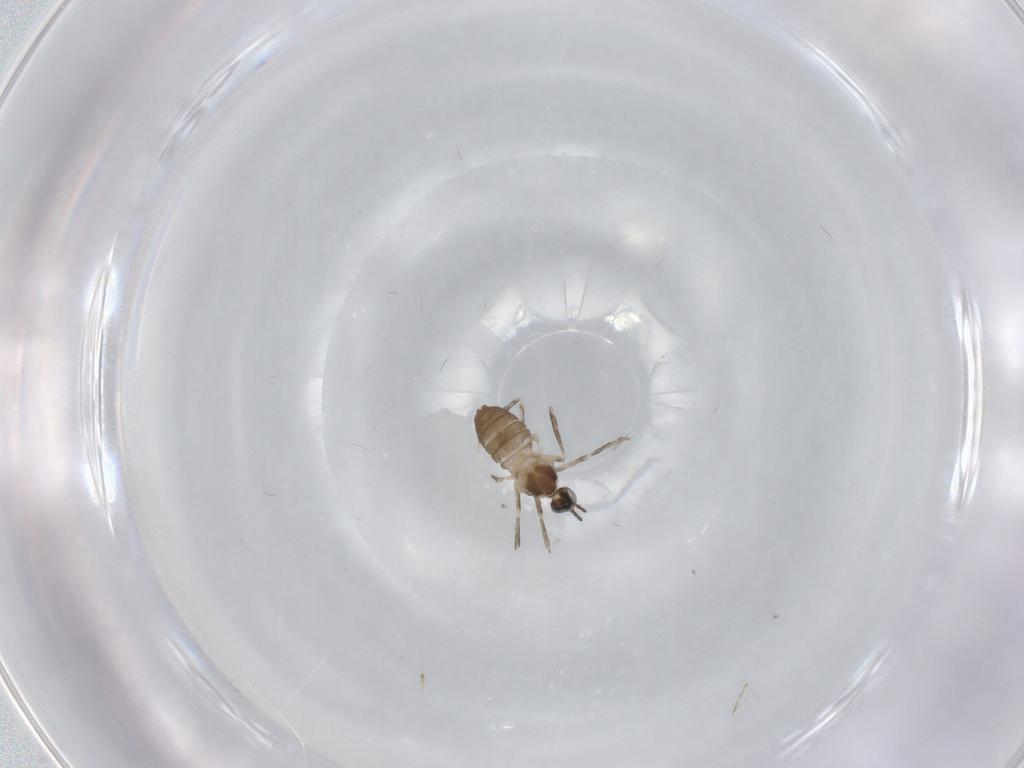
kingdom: Animalia
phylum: Arthropoda
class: Insecta
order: Diptera
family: Cecidomyiidae
